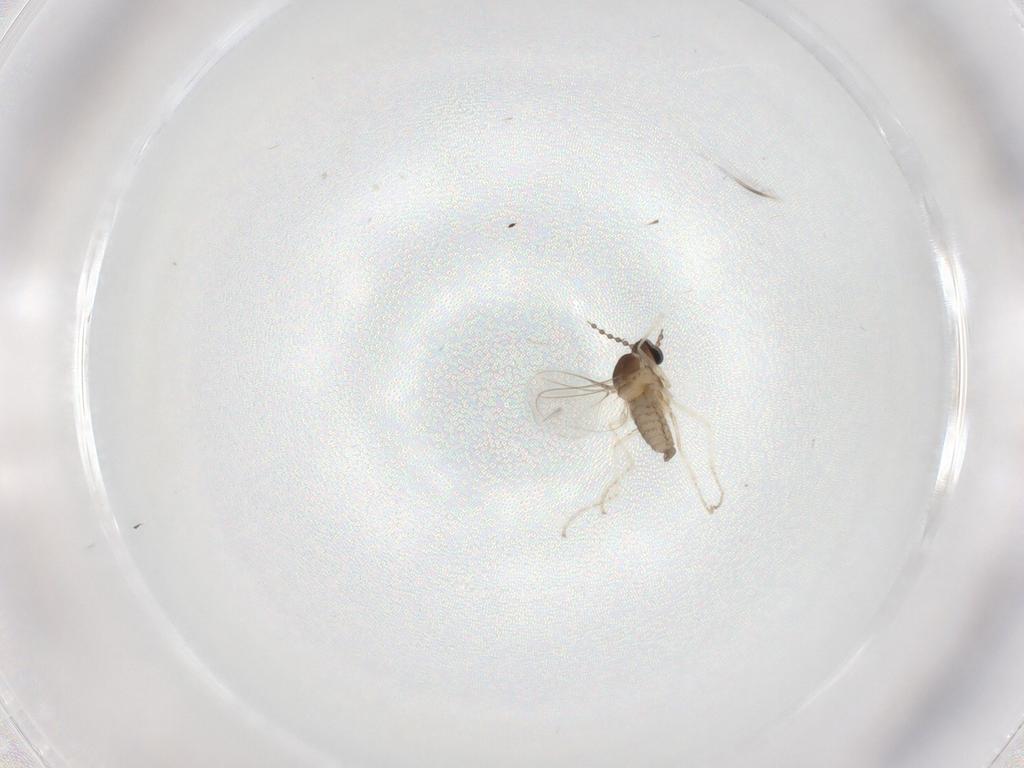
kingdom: Animalia
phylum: Arthropoda
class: Insecta
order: Diptera
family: Cecidomyiidae
